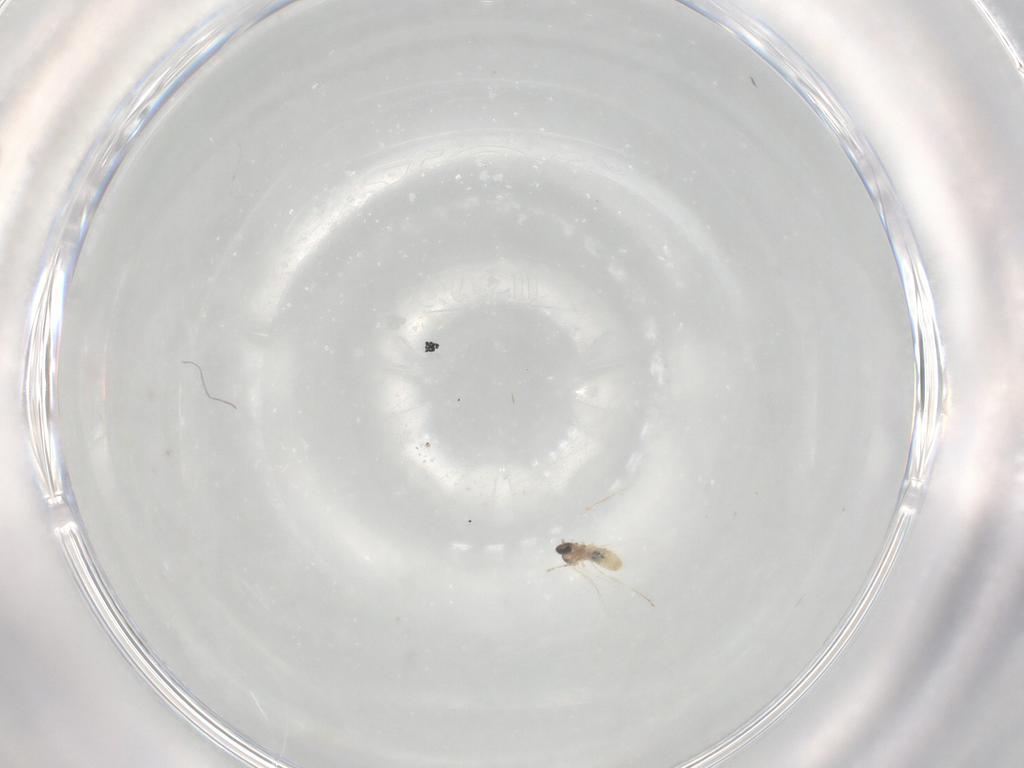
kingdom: Animalia
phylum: Arthropoda
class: Insecta
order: Diptera
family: Cecidomyiidae
